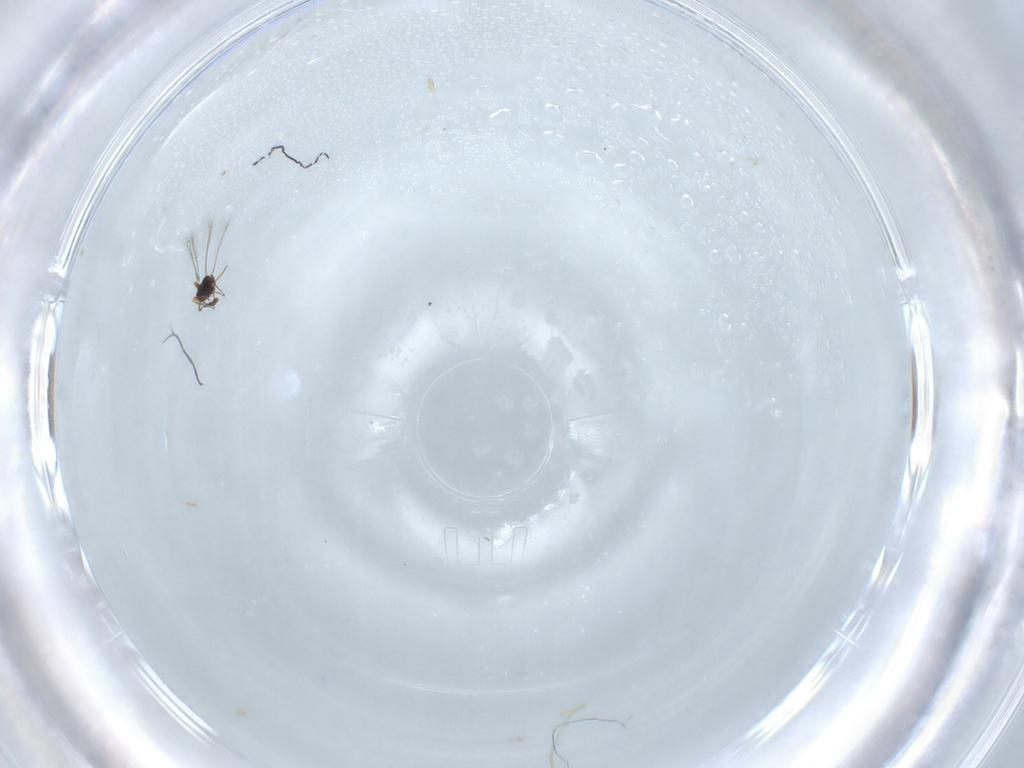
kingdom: Animalia
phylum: Arthropoda
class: Insecta
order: Hymenoptera
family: Mymaridae
